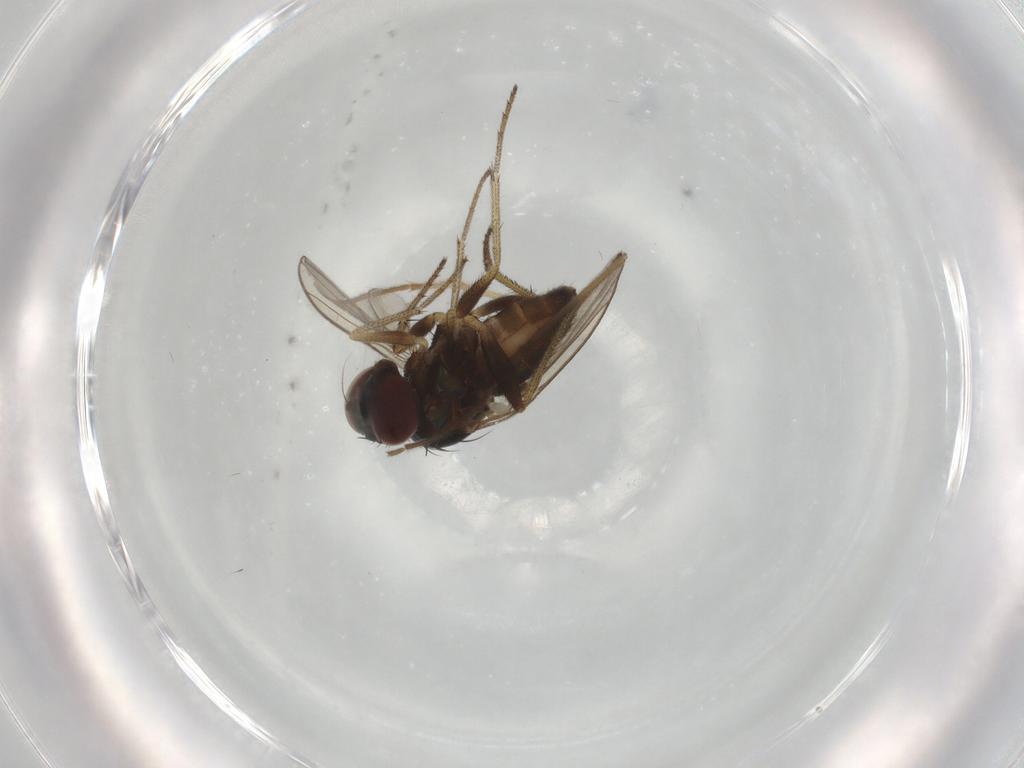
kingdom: Animalia
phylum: Arthropoda
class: Insecta
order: Diptera
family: Chironomidae
